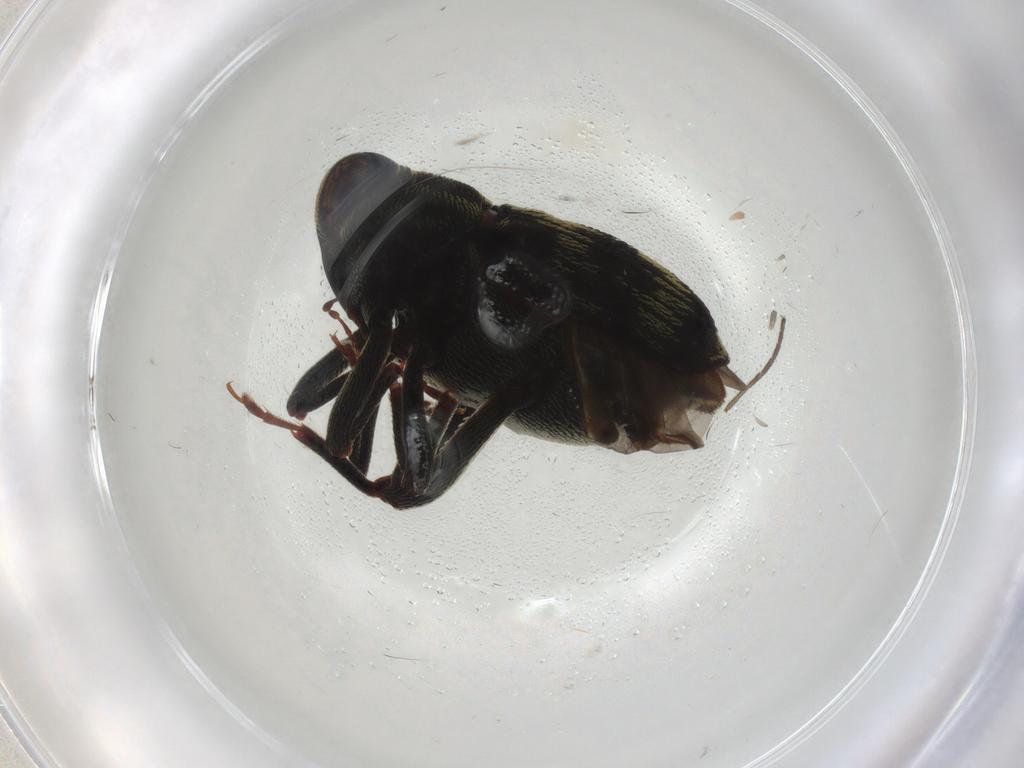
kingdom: Animalia
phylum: Arthropoda
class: Insecta
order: Coleoptera
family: Curculionidae
